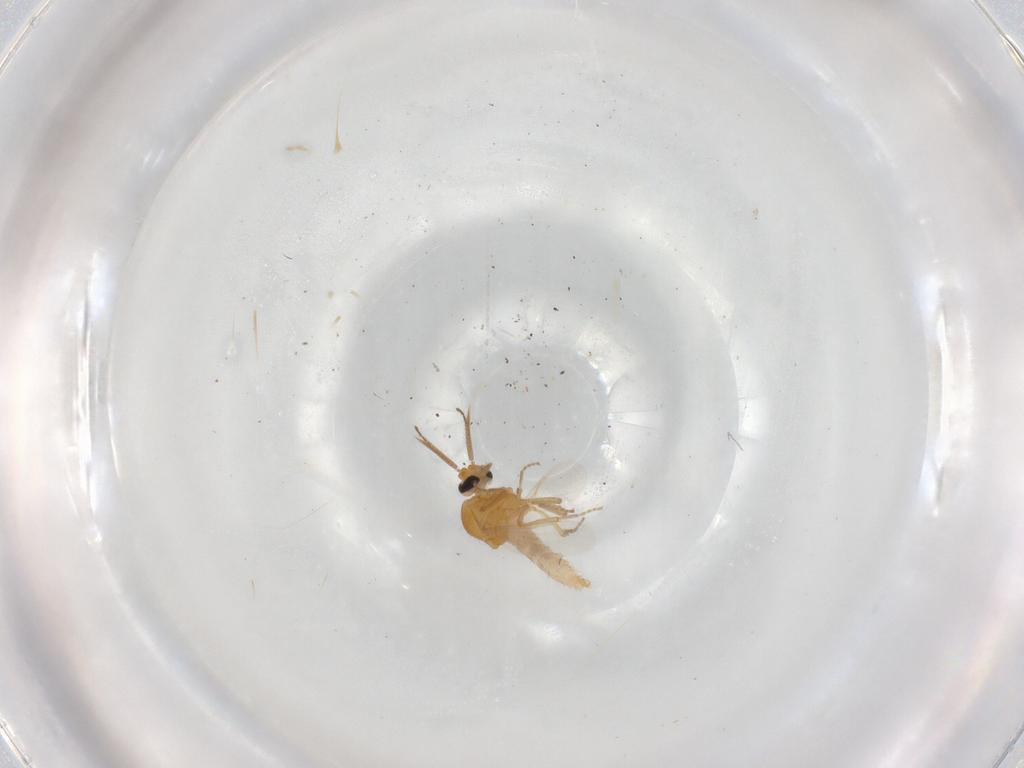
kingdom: Animalia
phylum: Arthropoda
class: Insecta
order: Diptera
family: Ceratopogonidae
